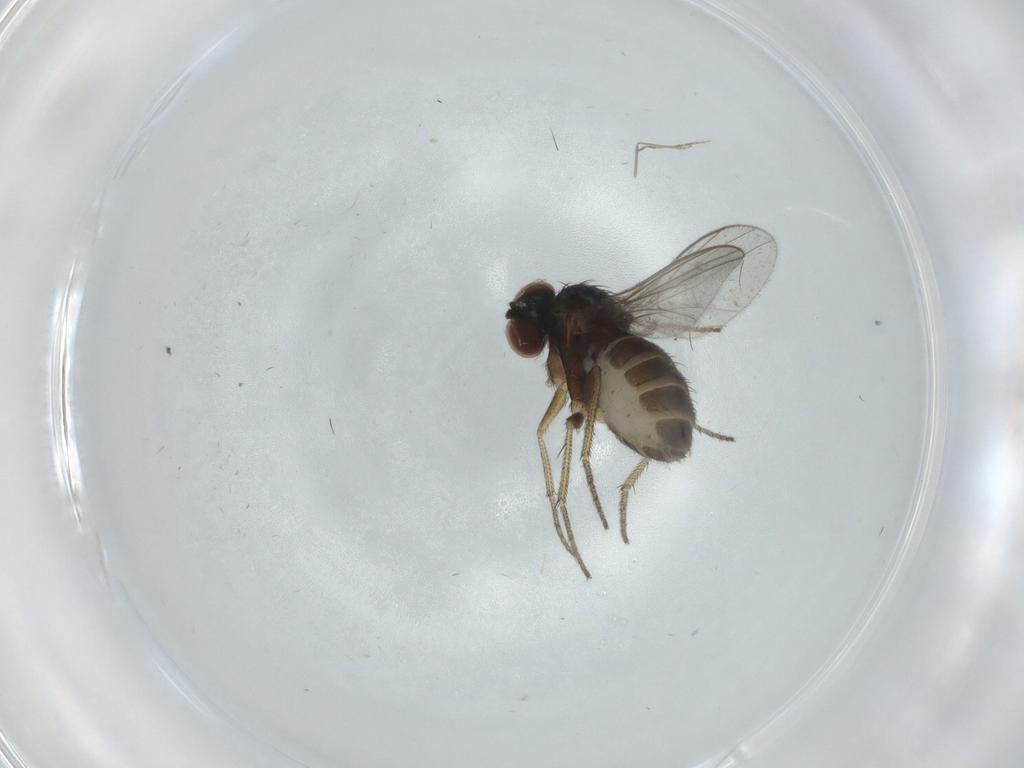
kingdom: Animalia
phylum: Arthropoda
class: Insecta
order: Diptera
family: Cecidomyiidae
